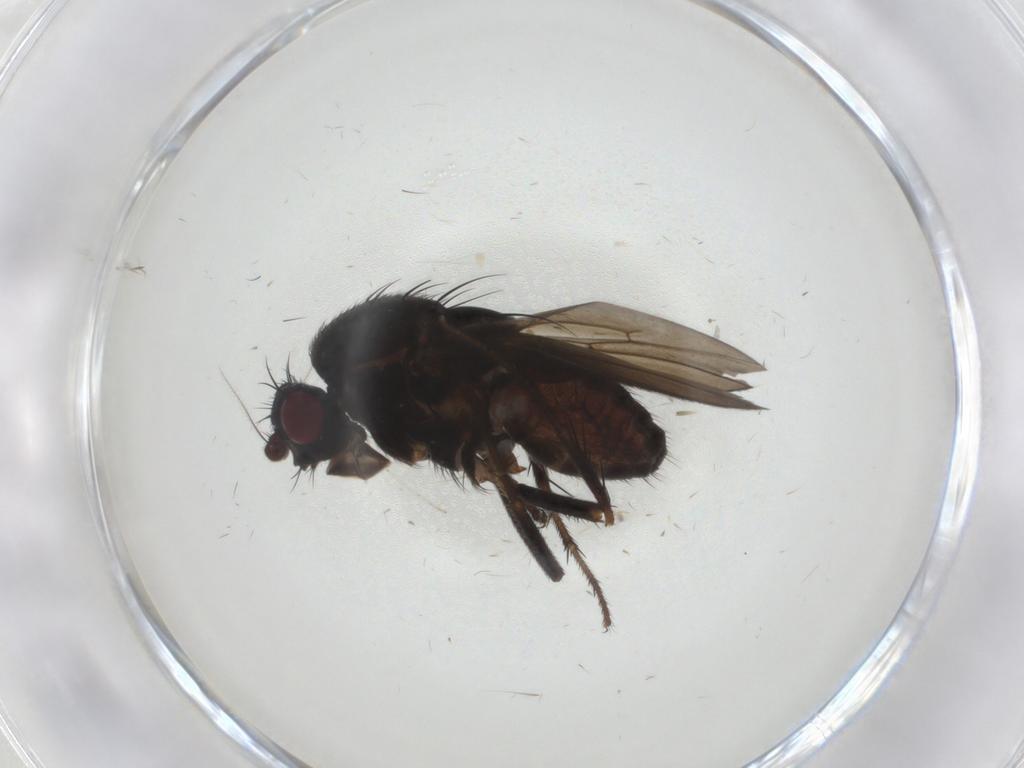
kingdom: Animalia
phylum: Arthropoda
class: Insecta
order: Diptera
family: Sphaeroceridae
